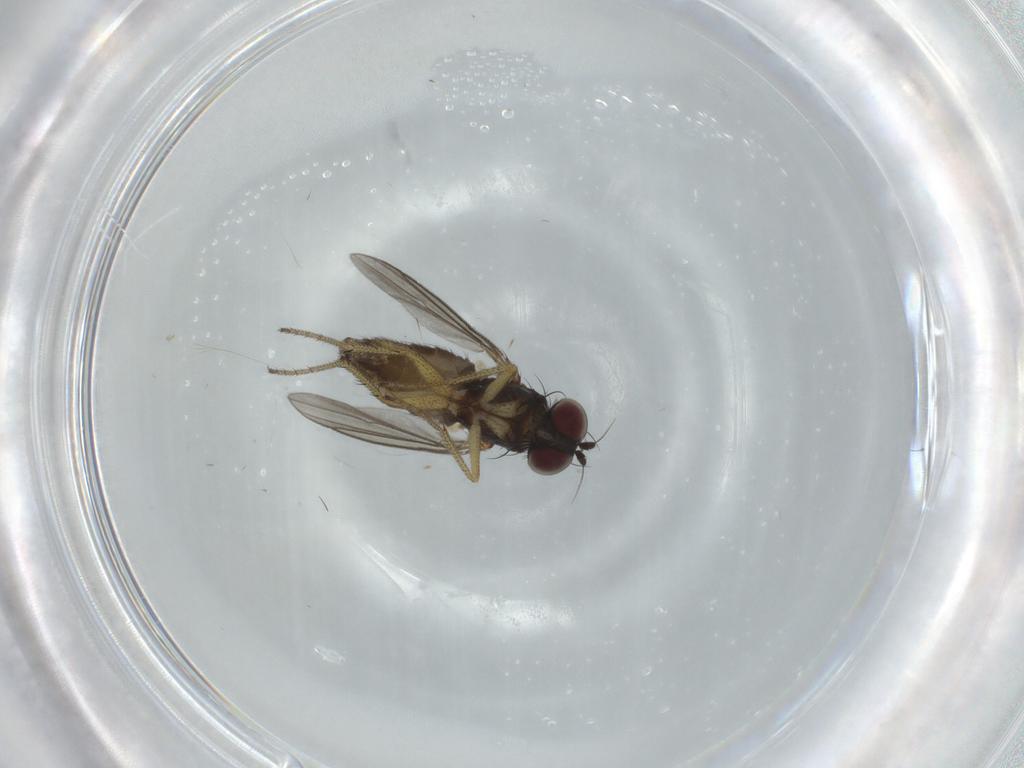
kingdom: Animalia
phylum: Arthropoda
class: Insecta
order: Diptera
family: Dolichopodidae
